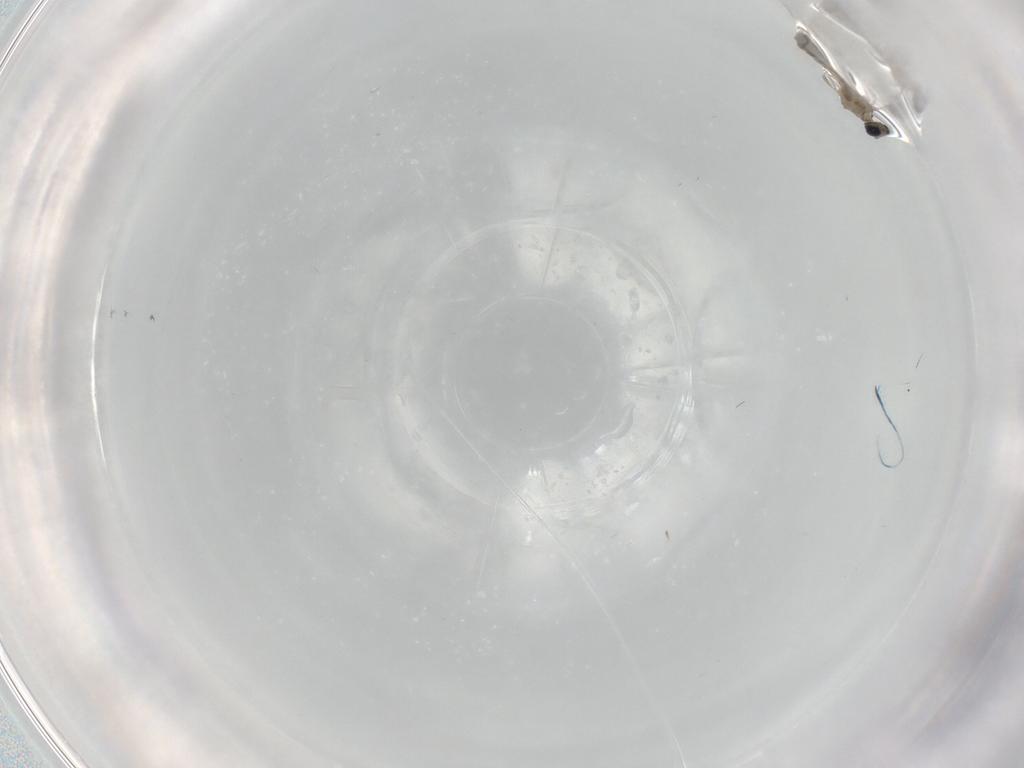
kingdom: Animalia
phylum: Arthropoda
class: Insecta
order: Diptera
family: Cecidomyiidae
